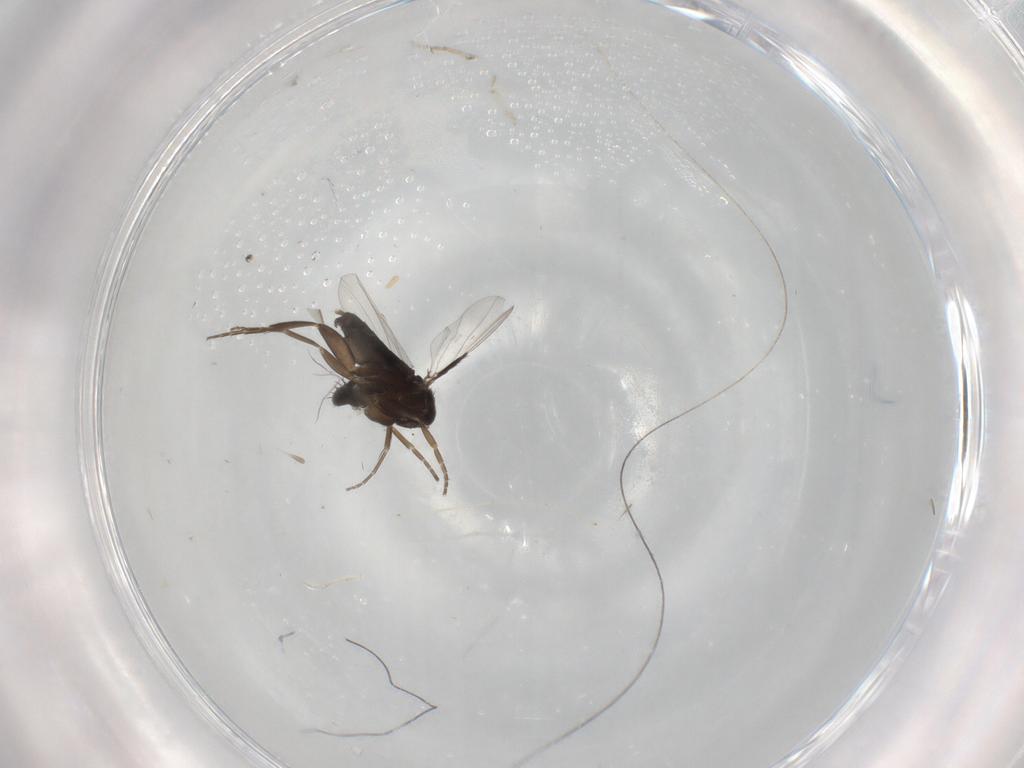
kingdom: Animalia
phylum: Arthropoda
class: Insecta
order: Diptera
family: Phoridae
